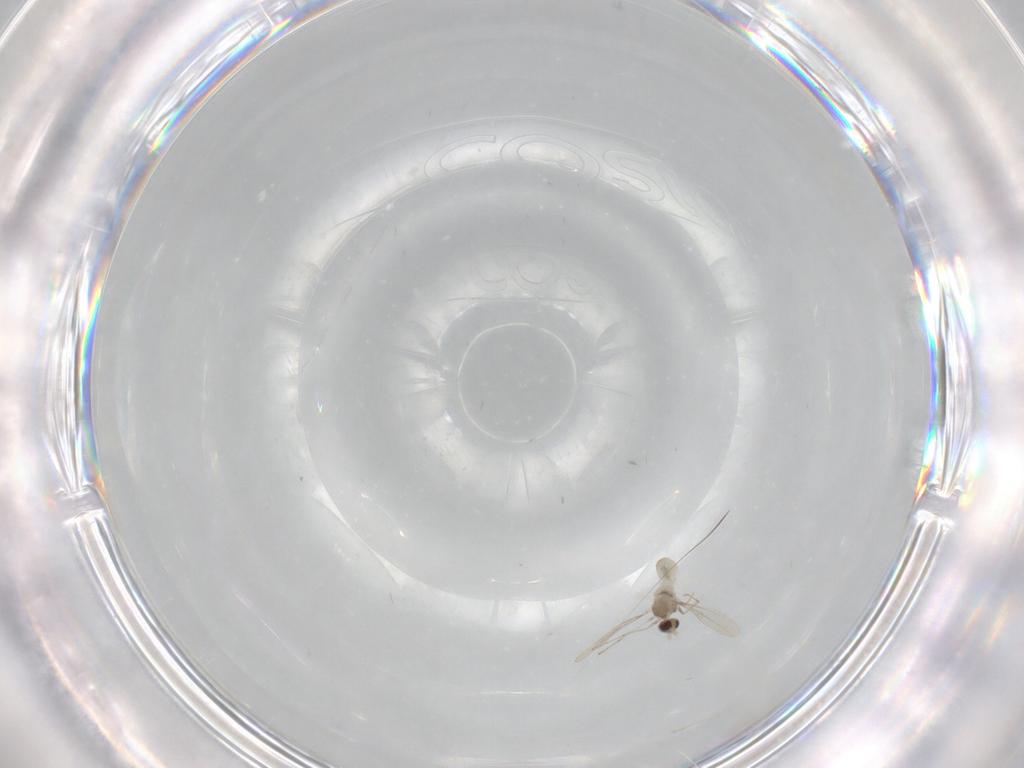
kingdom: Animalia
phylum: Arthropoda
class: Insecta
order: Diptera
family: Cecidomyiidae
